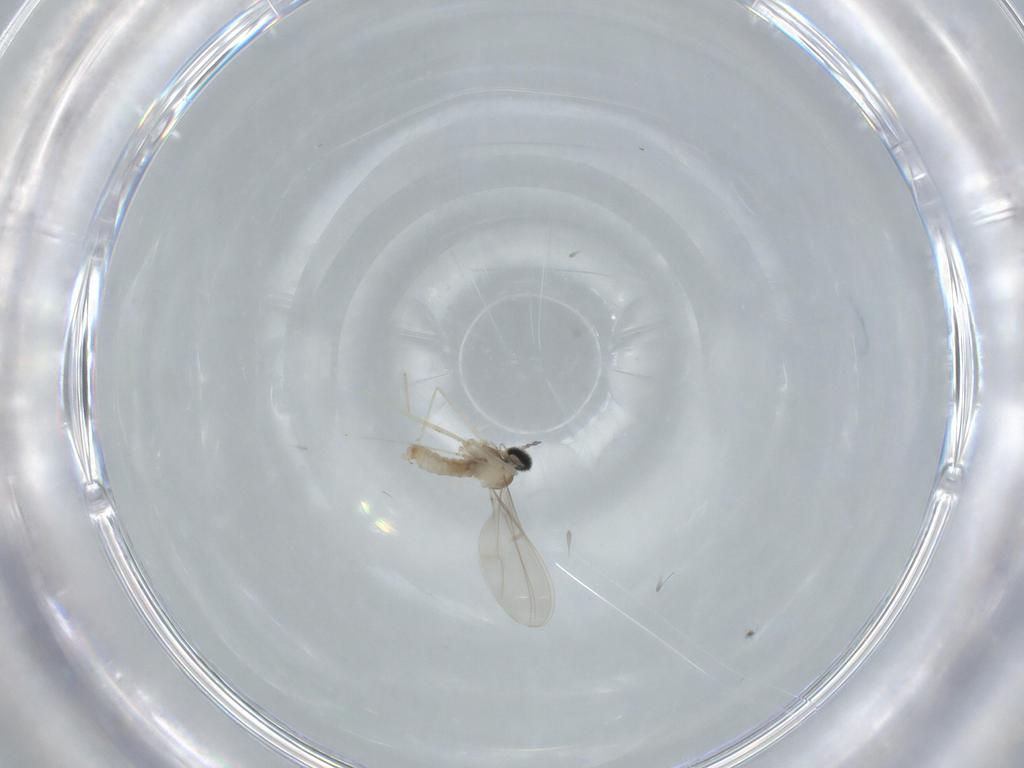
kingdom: Animalia
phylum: Arthropoda
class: Insecta
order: Diptera
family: Cecidomyiidae
